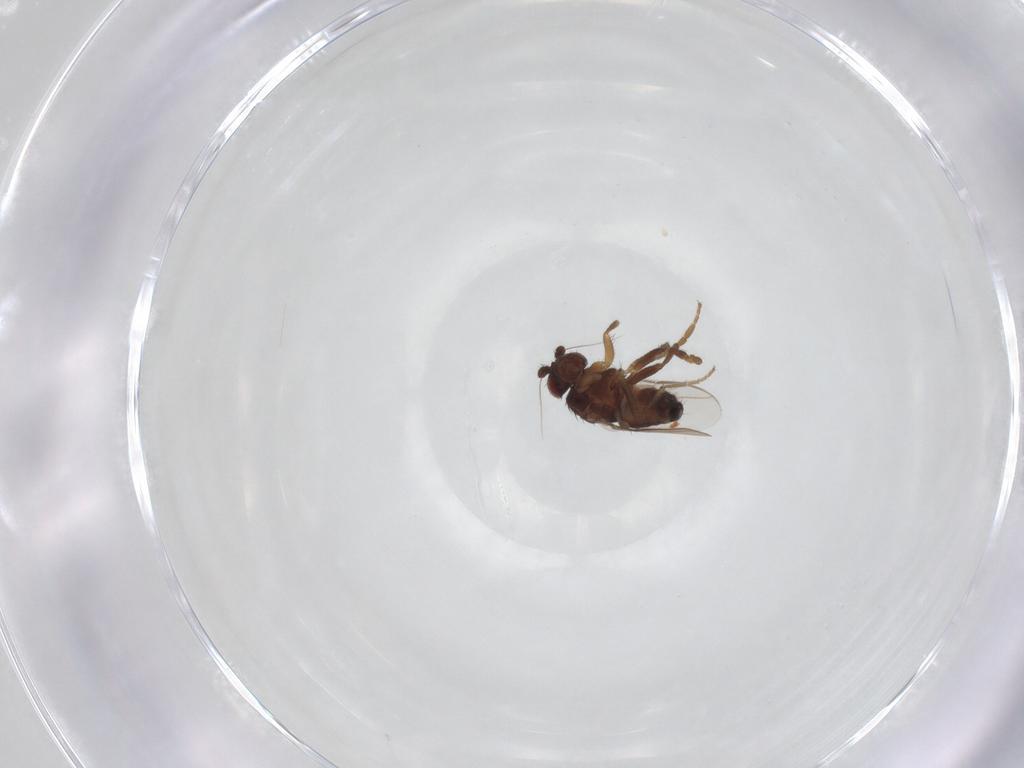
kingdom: Animalia
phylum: Arthropoda
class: Insecta
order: Diptera
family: Sphaeroceridae
